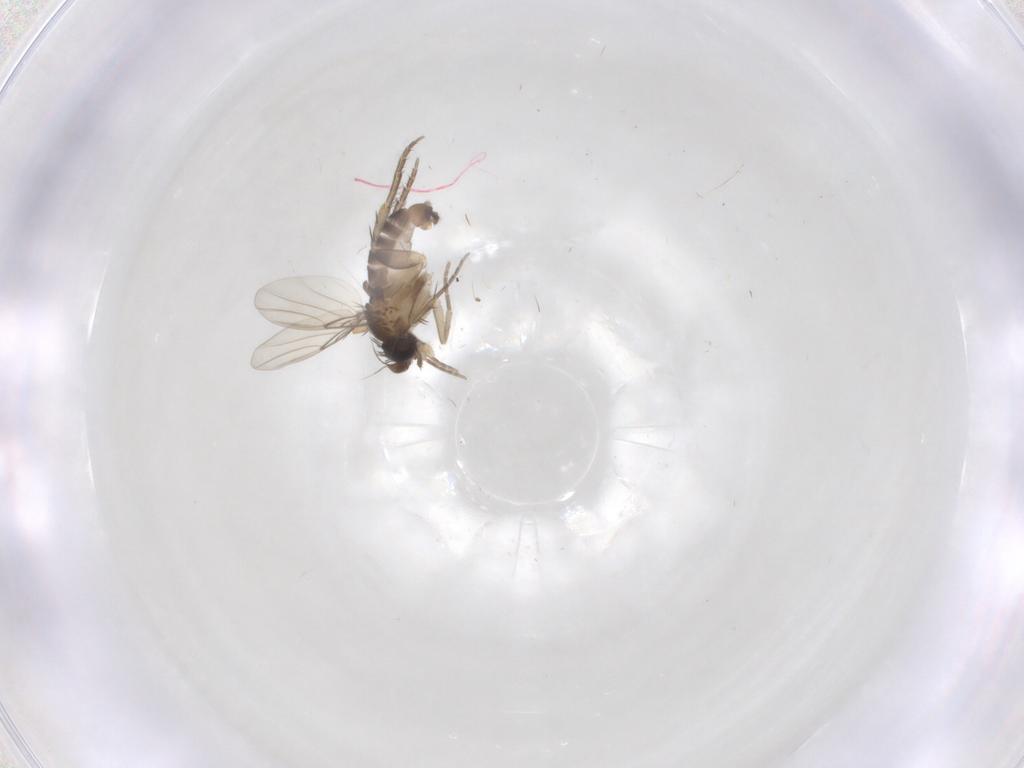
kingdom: Animalia
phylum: Arthropoda
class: Insecta
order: Diptera
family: Phoridae
